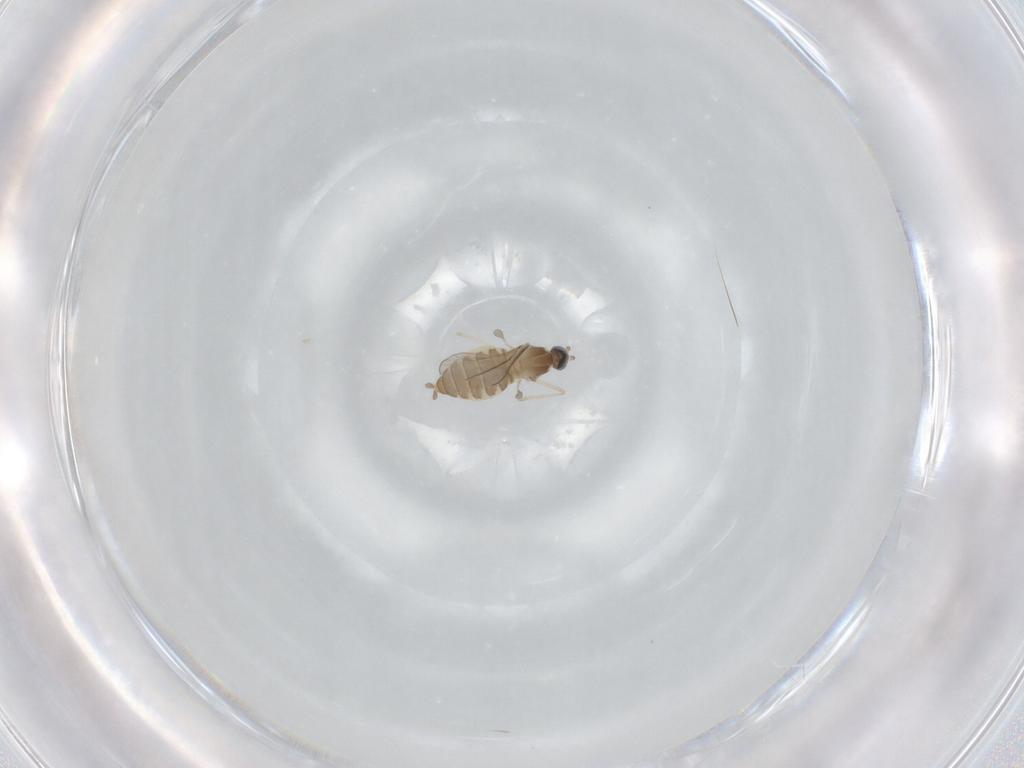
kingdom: Animalia
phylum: Arthropoda
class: Insecta
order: Diptera
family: Cecidomyiidae
